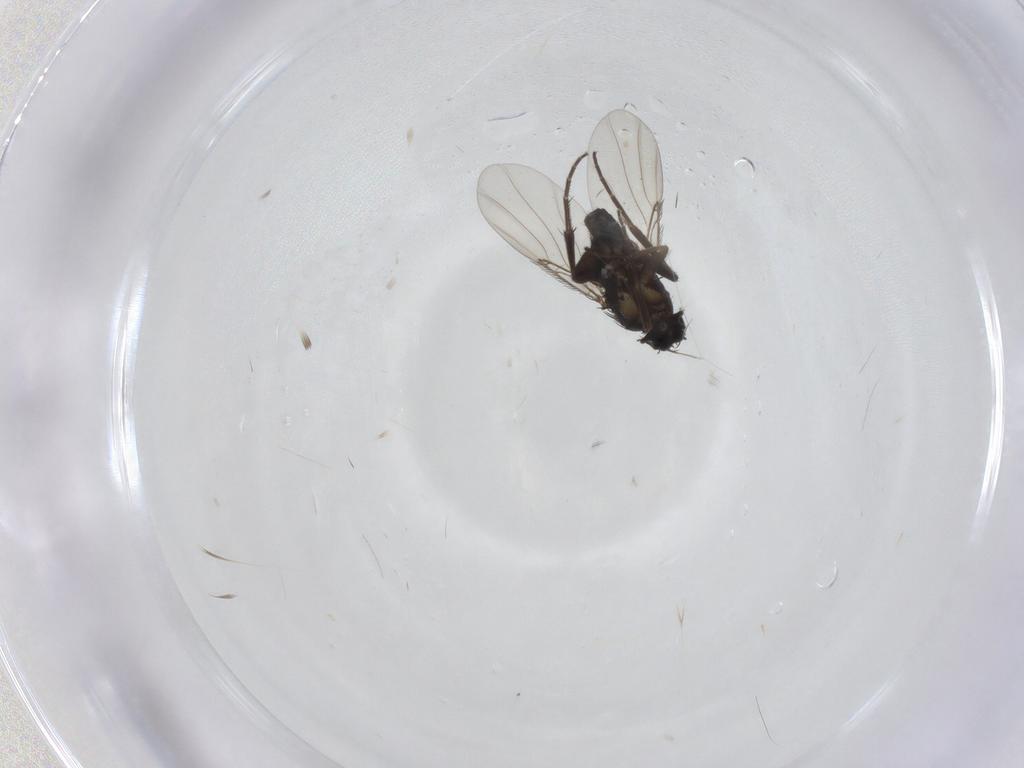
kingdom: Animalia
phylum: Arthropoda
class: Insecta
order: Diptera
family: Phoridae
